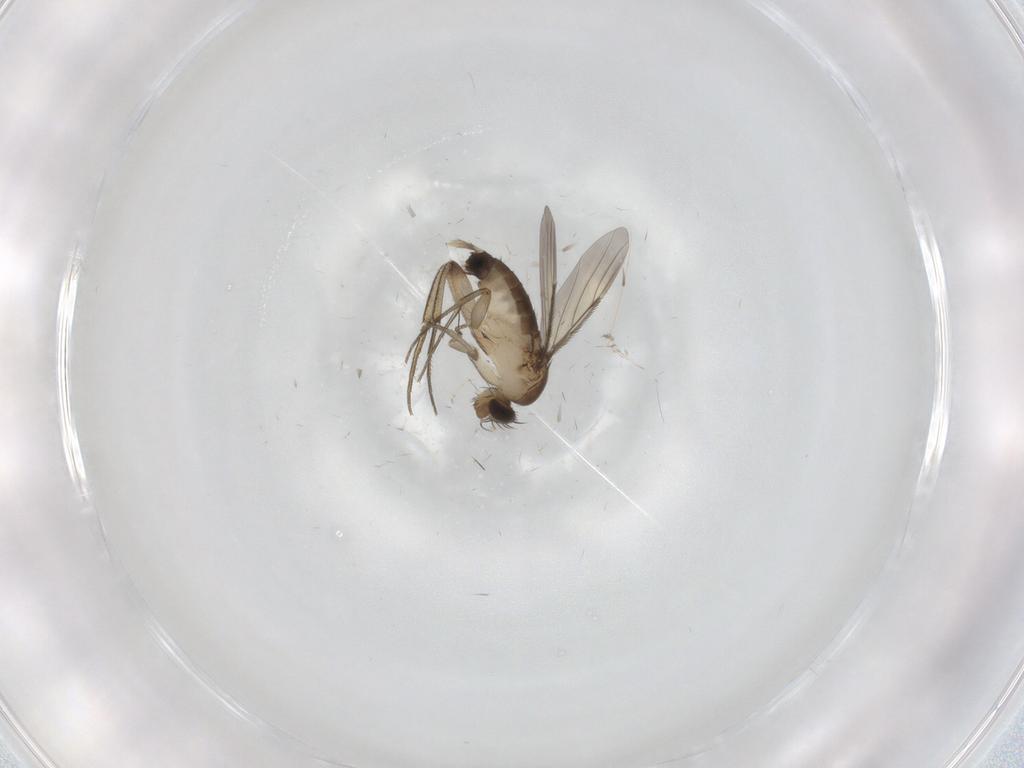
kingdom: Animalia
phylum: Arthropoda
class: Insecta
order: Diptera
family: Phoridae
